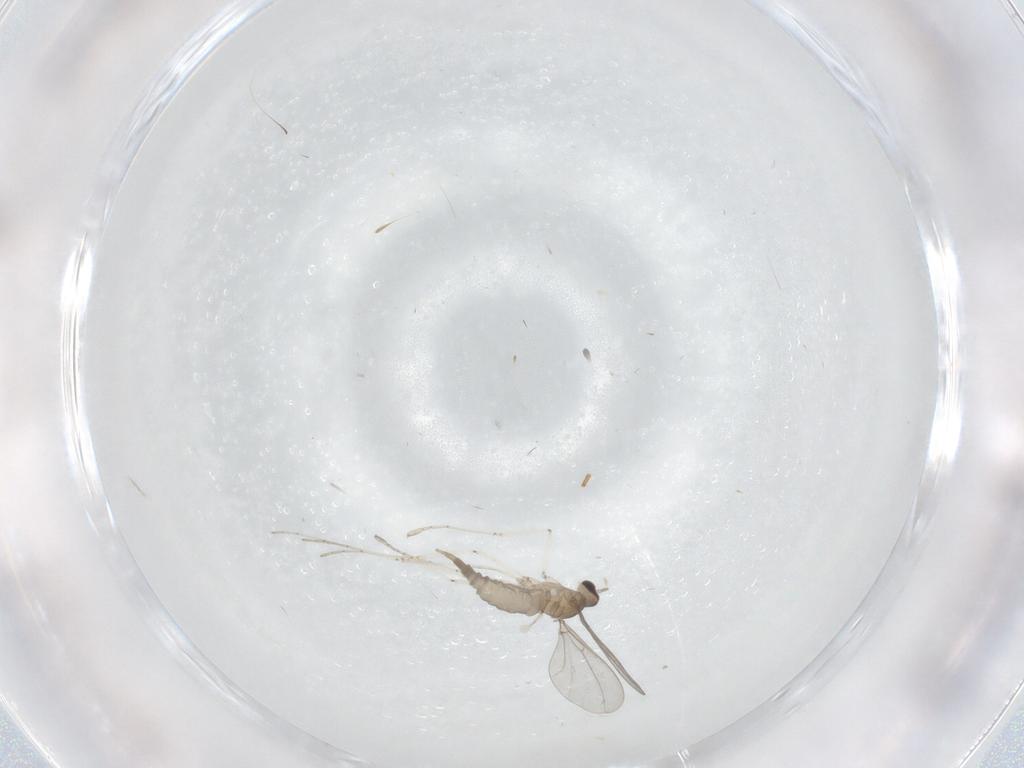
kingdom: Animalia
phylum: Arthropoda
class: Insecta
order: Diptera
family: Cecidomyiidae
